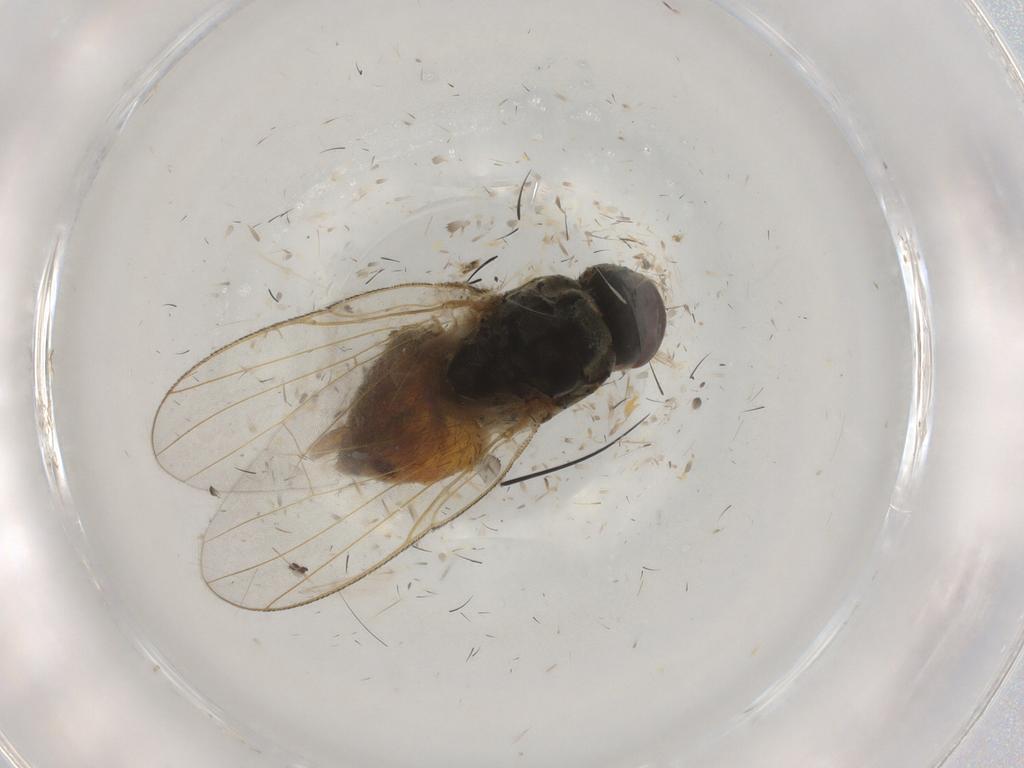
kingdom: Animalia
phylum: Arthropoda
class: Insecta
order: Diptera
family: Muscidae
